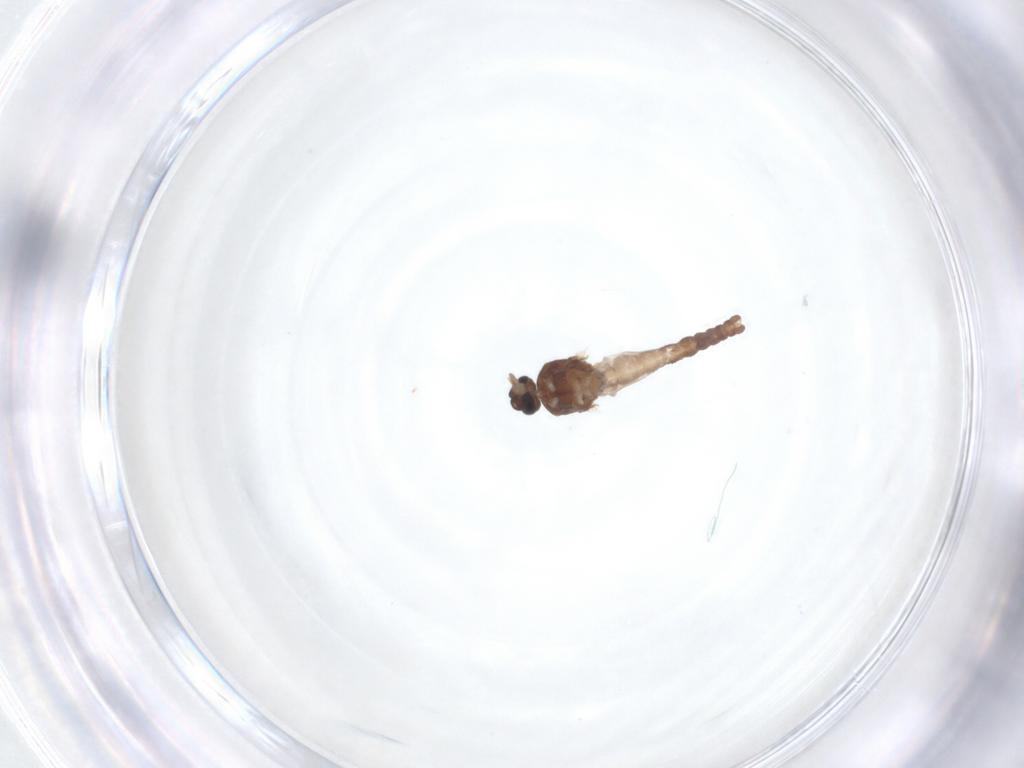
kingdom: Animalia
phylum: Arthropoda
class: Insecta
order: Diptera
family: Ceratopogonidae
